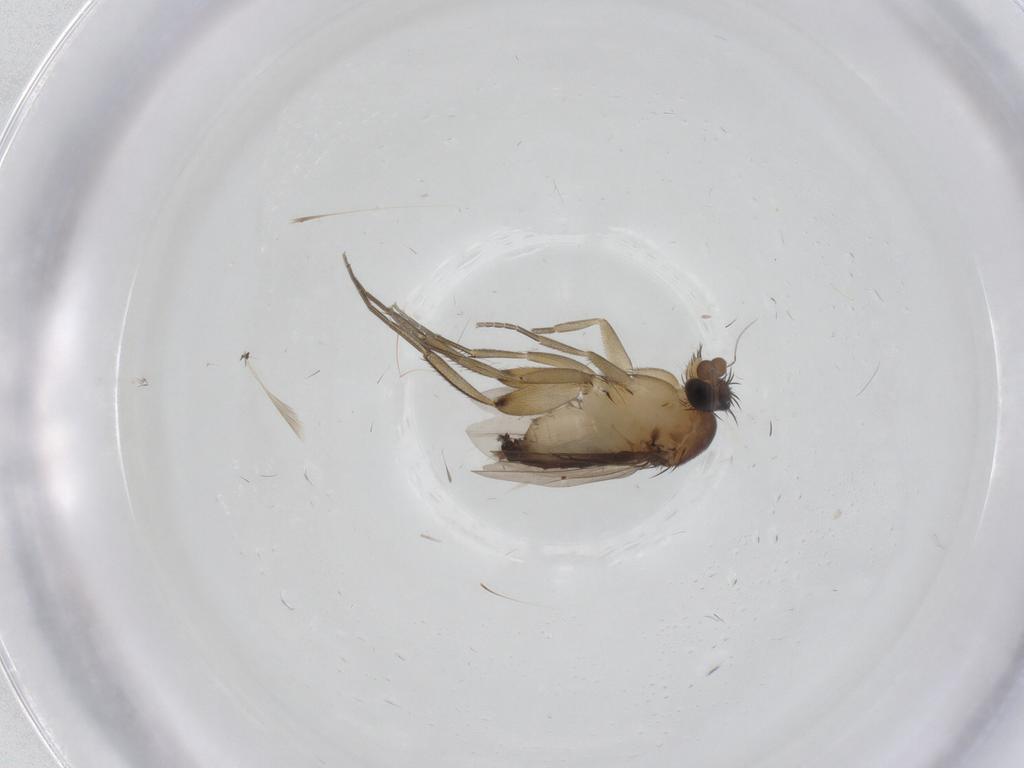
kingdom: Animalia
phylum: Arthropoda
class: Insecta
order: Diptera
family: Phoridae
